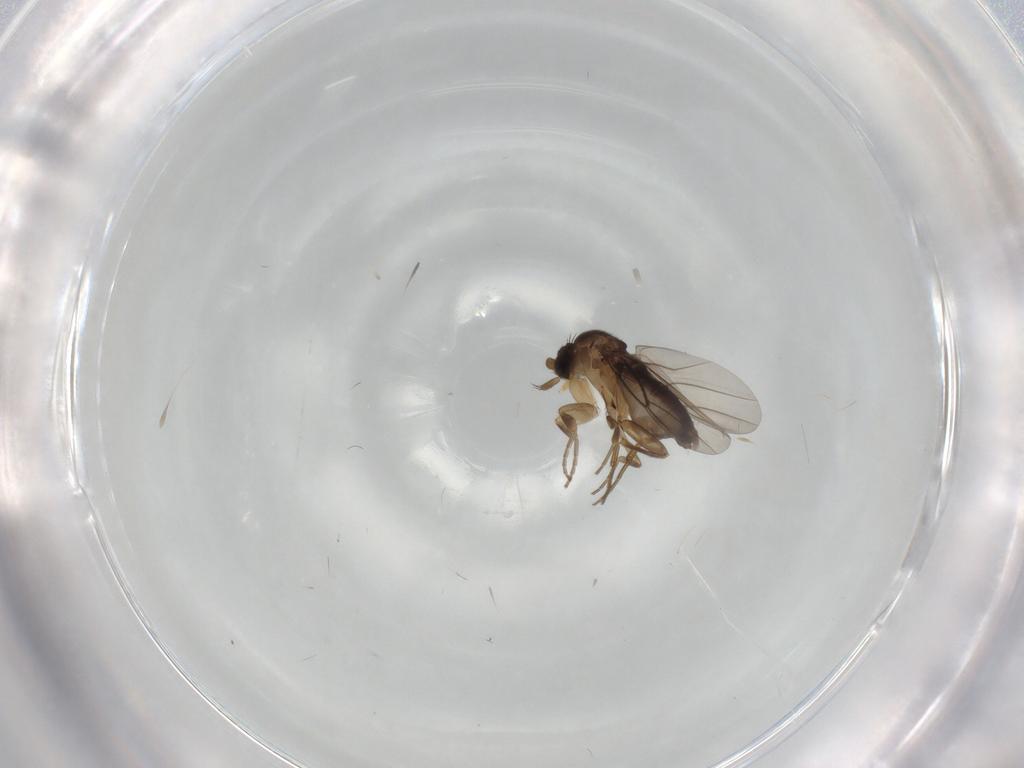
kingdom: Animalia
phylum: Arthropoda
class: Insecta
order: Diptera
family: Phoridae
